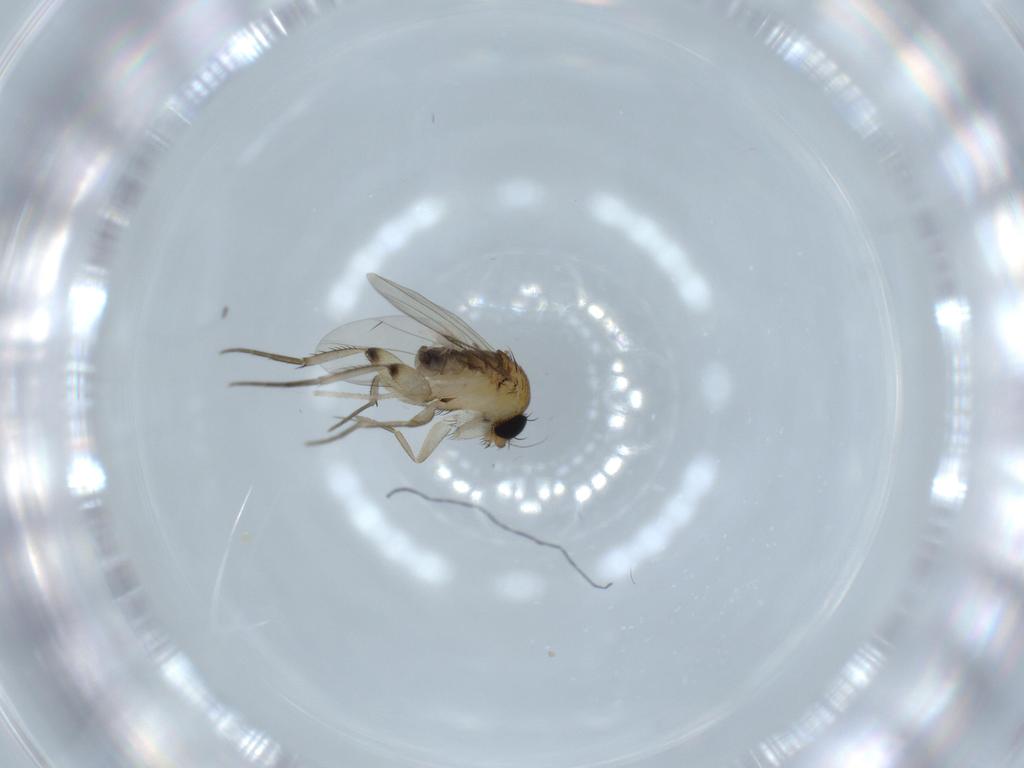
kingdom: Animalia
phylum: Arthropoda
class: Insecta
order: Diptera
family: Phoridae
